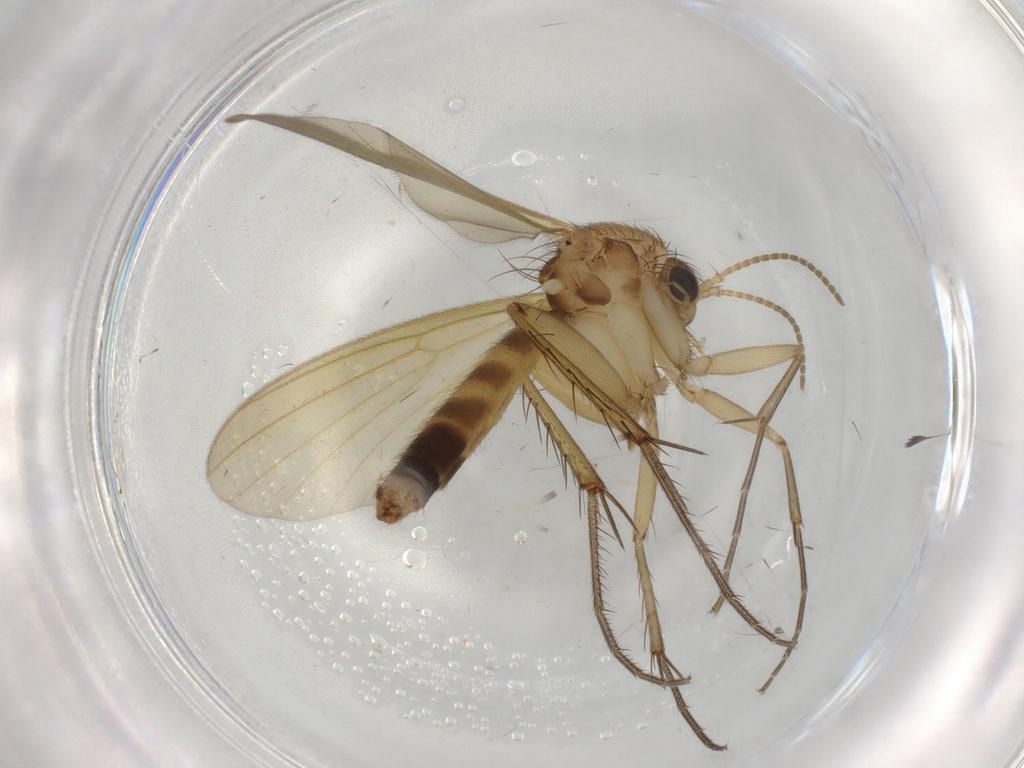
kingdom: Animalia
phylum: Arthropoda
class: Insecta
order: Diptera
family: Mycetophilidae
